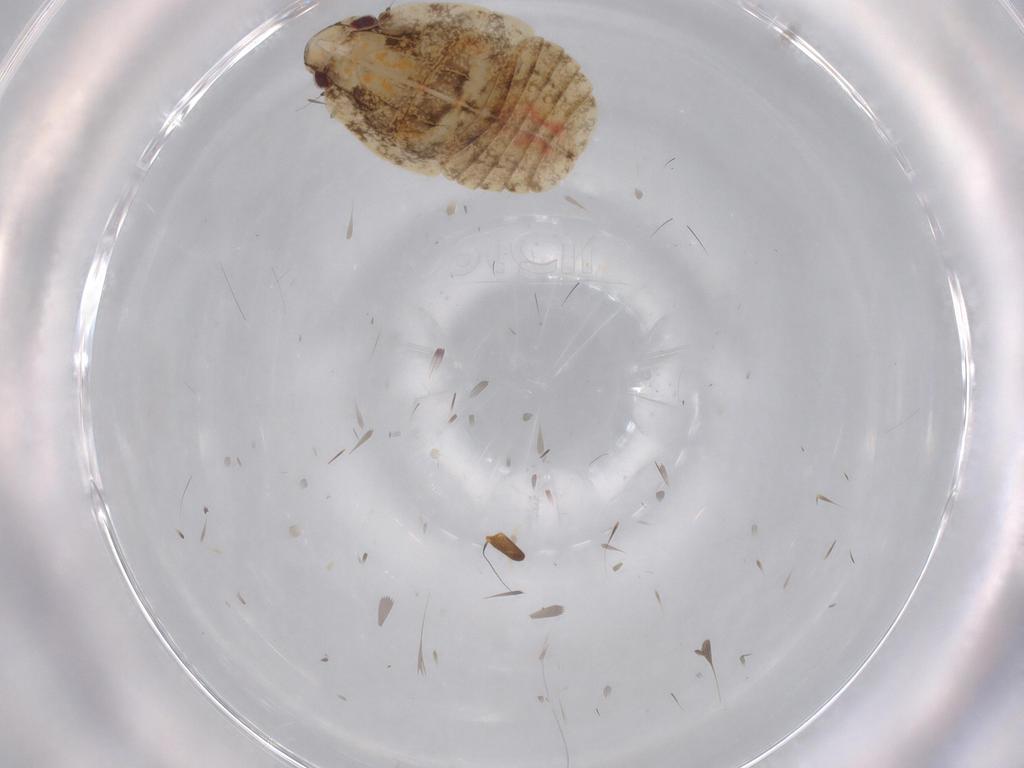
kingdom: Animalia
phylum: Arthropoda
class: Insecta
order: Hemiptera
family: Flatidae
